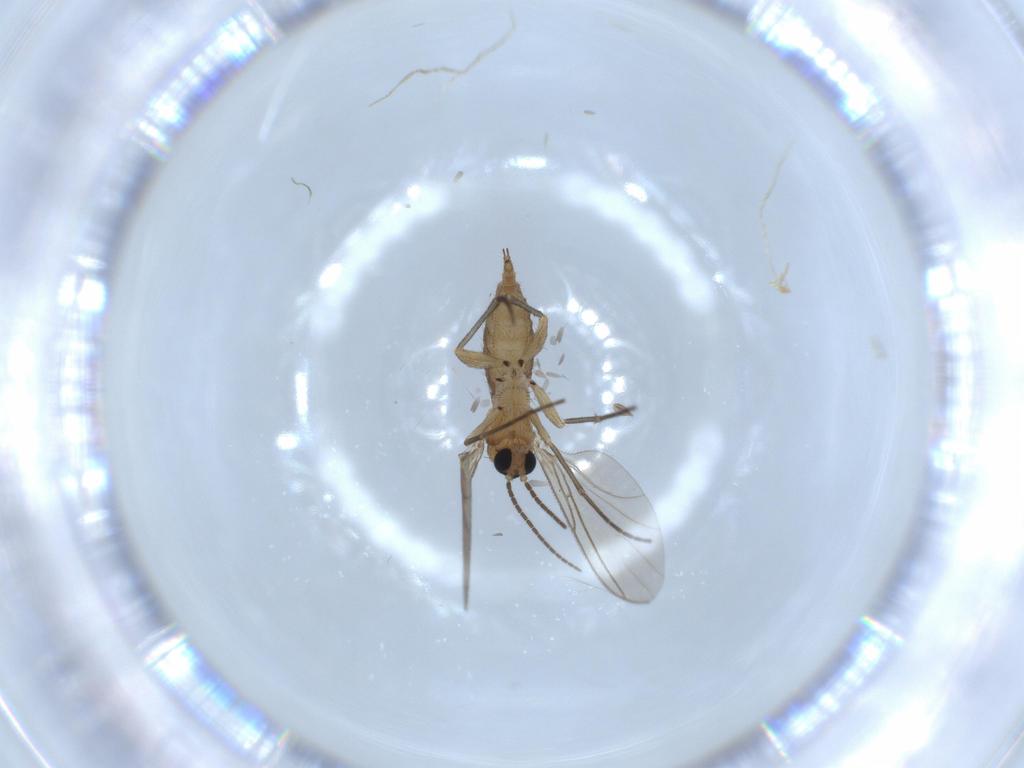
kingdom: Animalia
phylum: Arthropoda
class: Insecta
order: Diptera
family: Sciaridae
